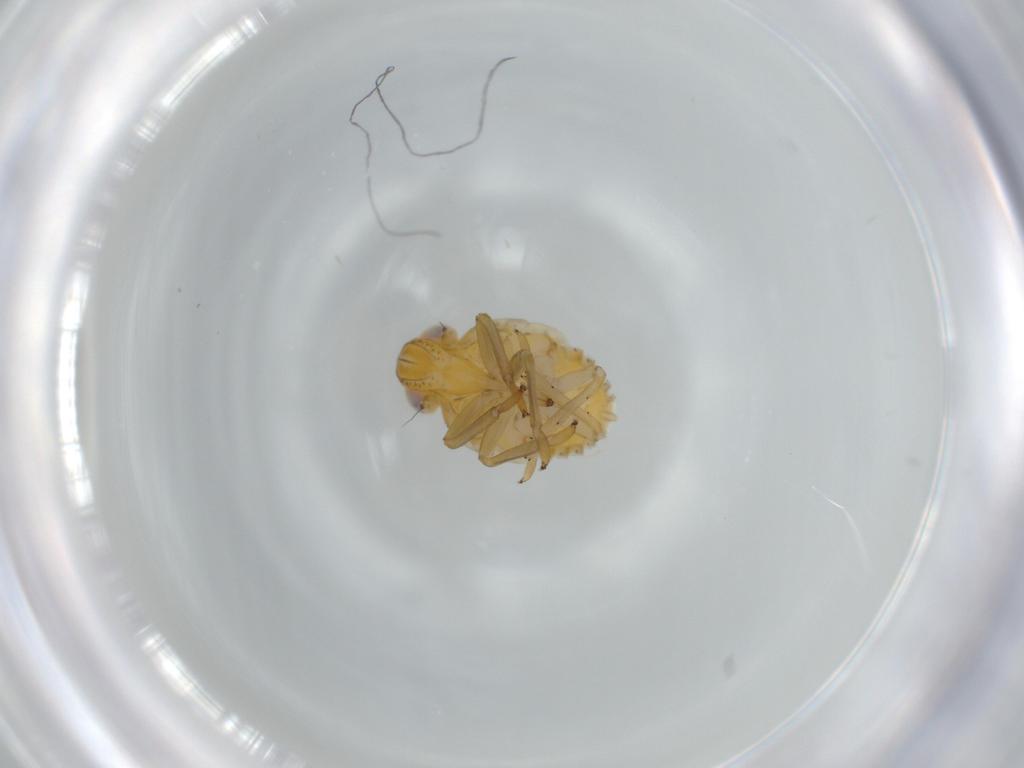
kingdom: Animalia
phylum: Arthropoda
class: Insecta
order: Hemiptera
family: Issidae
